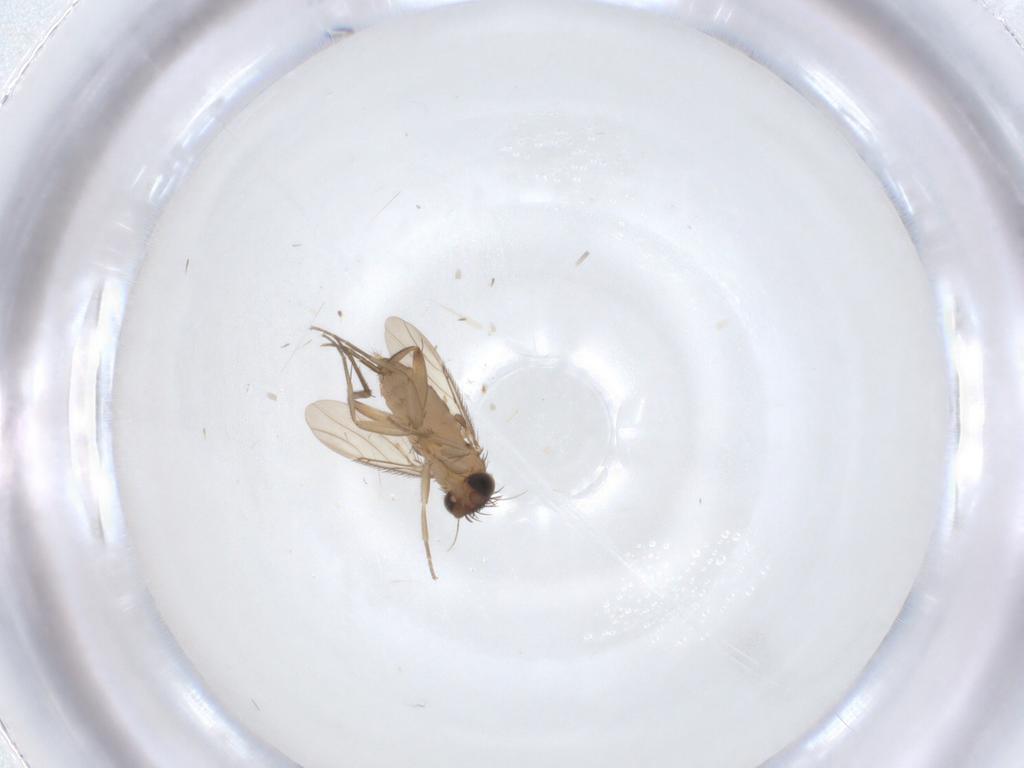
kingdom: Animalia
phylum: Arthropoda
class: Insecta
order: Diptera
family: Phoridae
